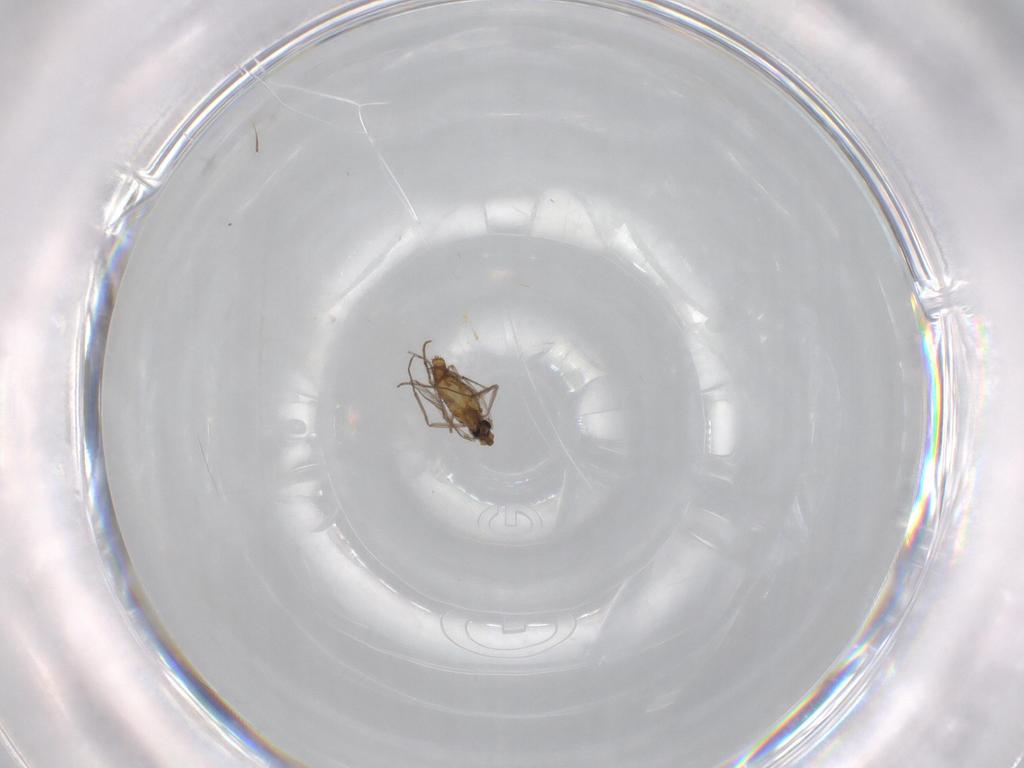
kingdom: Animalia
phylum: Arthropoda
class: Insecta
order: Diptera
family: Chironomidae
